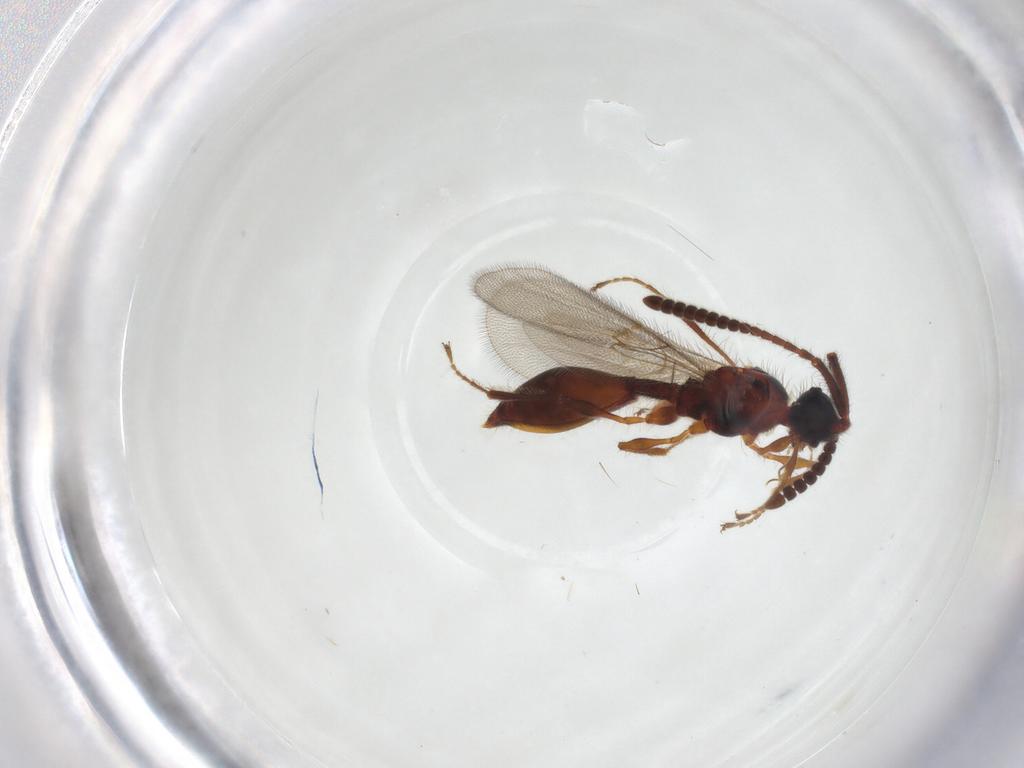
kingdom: Animalia
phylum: Arthropoda
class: Insecta
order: Hymenoptera
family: Diapriidae
